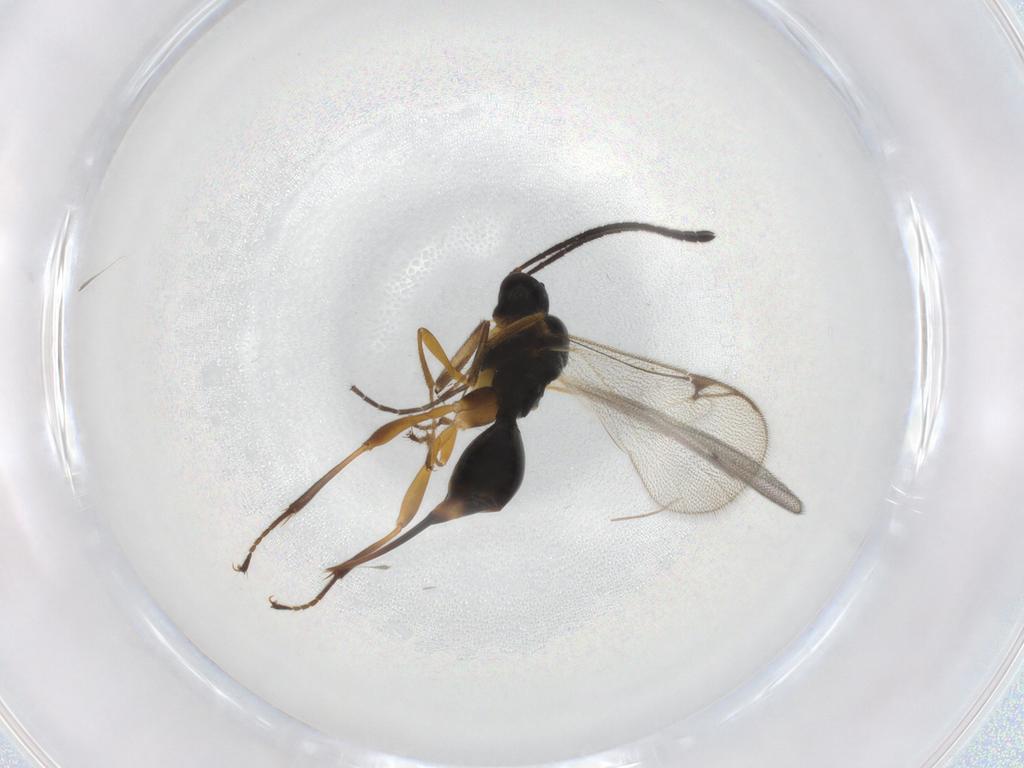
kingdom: Animalia
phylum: Arthropoda
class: Insecta
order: Hymenoptera
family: Proctotrupidae
